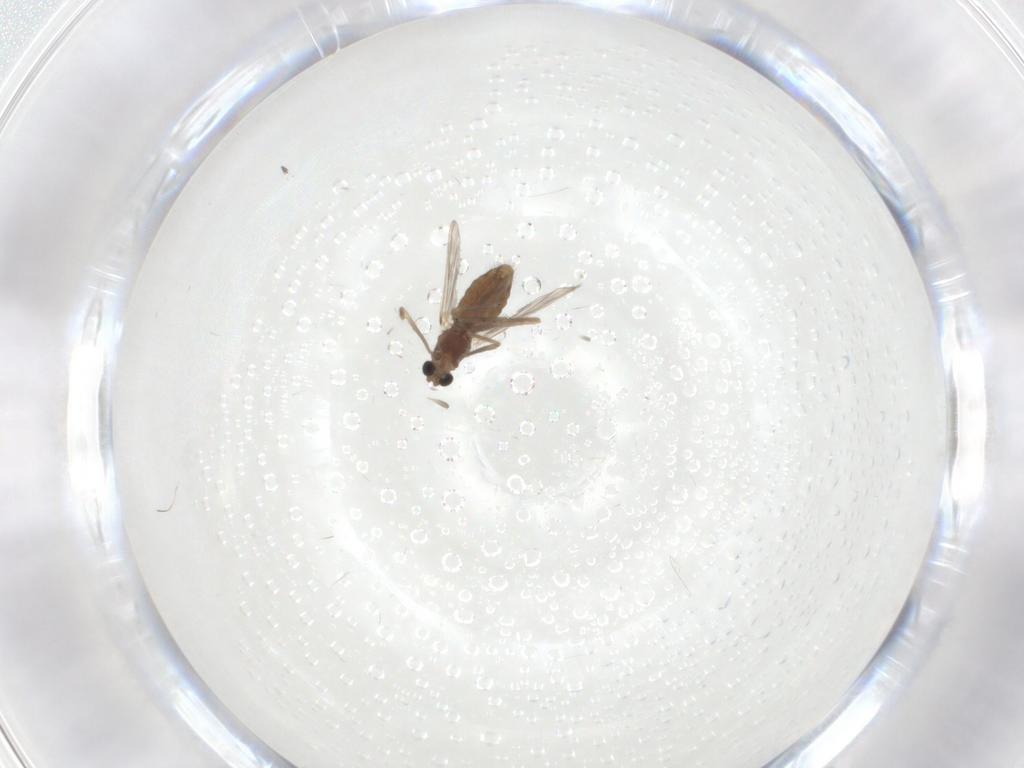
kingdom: Animalia
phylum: Arthropoda
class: Insecta
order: Diptera
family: Chironomidae
